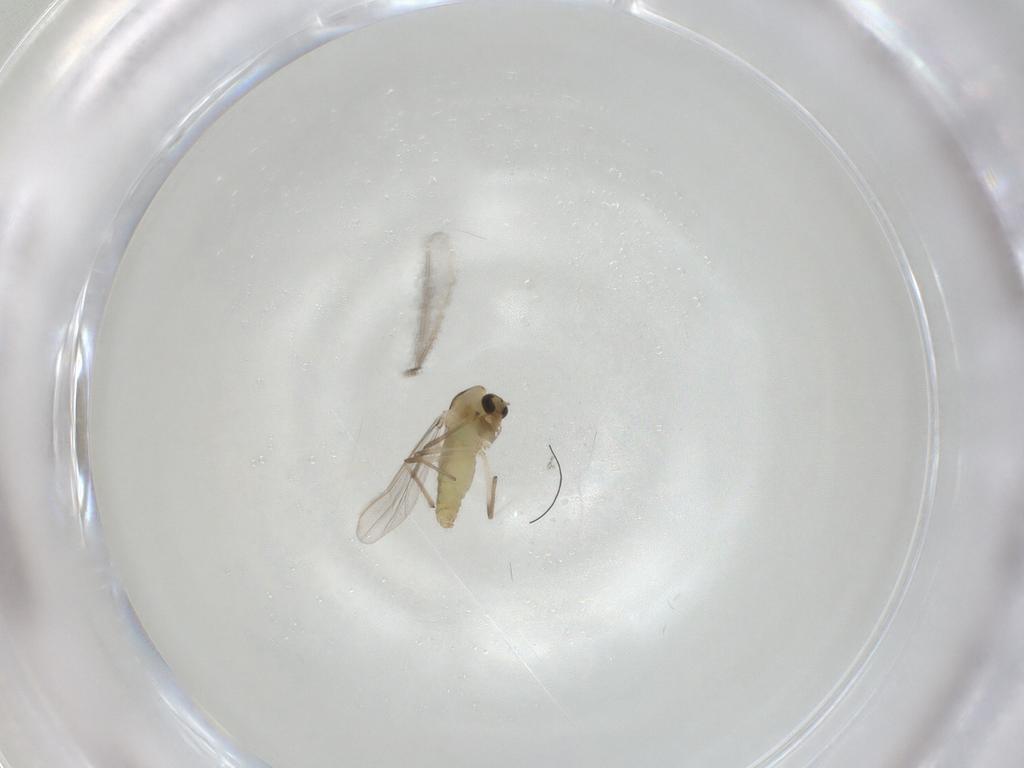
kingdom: Animalia
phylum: Arthropoda
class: Insecta
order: Diptera
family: Chironomidae
